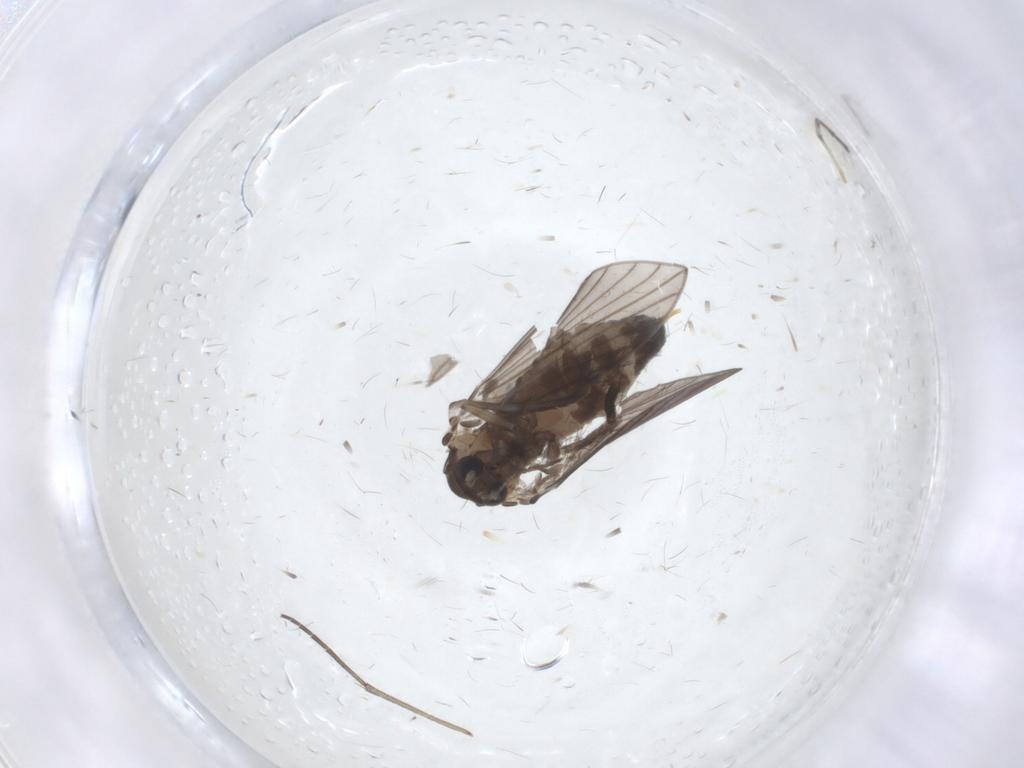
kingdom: Animalia
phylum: Arthropoda
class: Insecta
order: Diptera
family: Psychodidae
